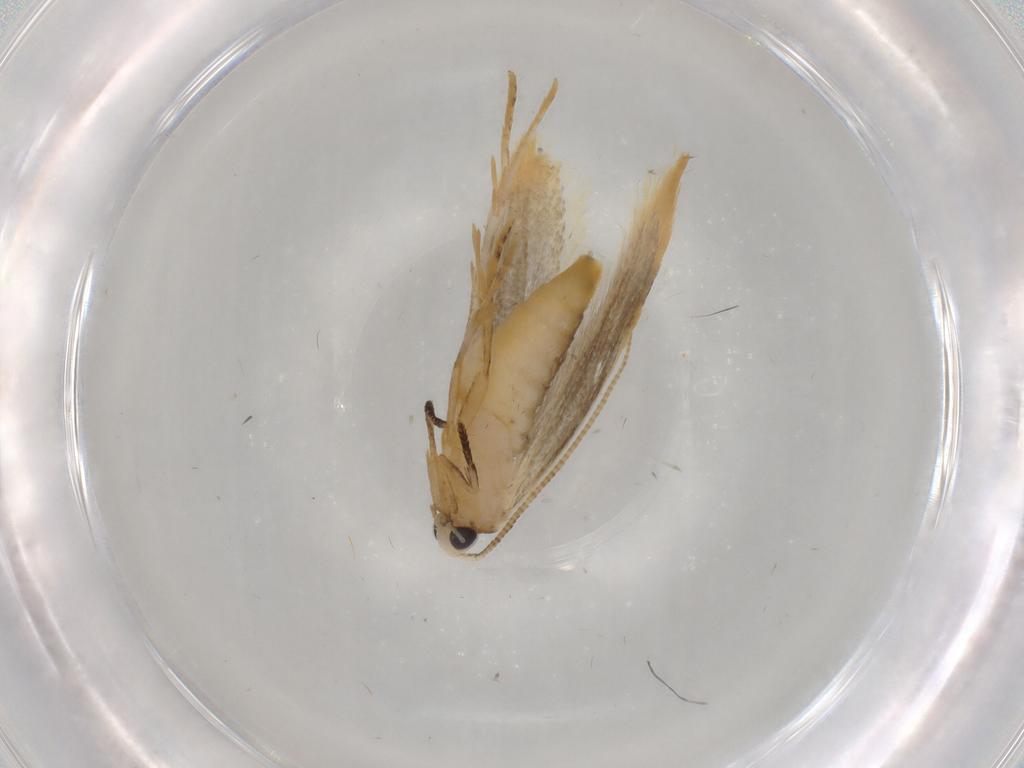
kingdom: Animalia
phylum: Arthropoda
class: Insecta
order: Lepidoptera
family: Tineidae
